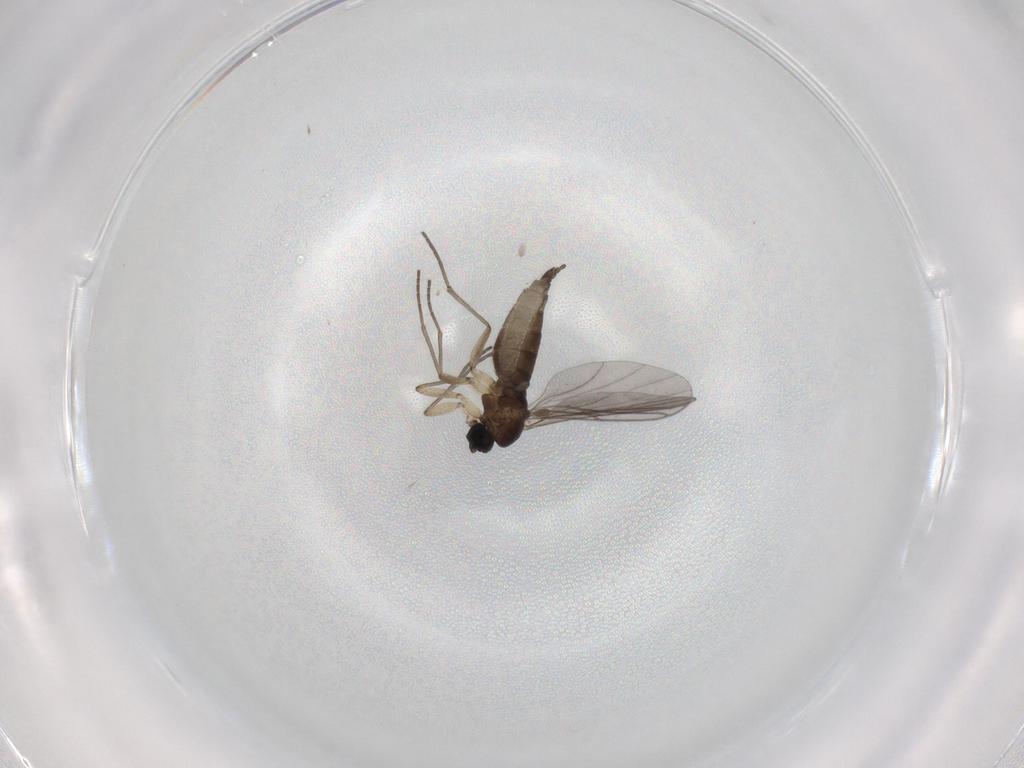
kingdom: Animalia
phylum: Arthropoda
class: Insecta
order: Diptera
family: Sciaridae
